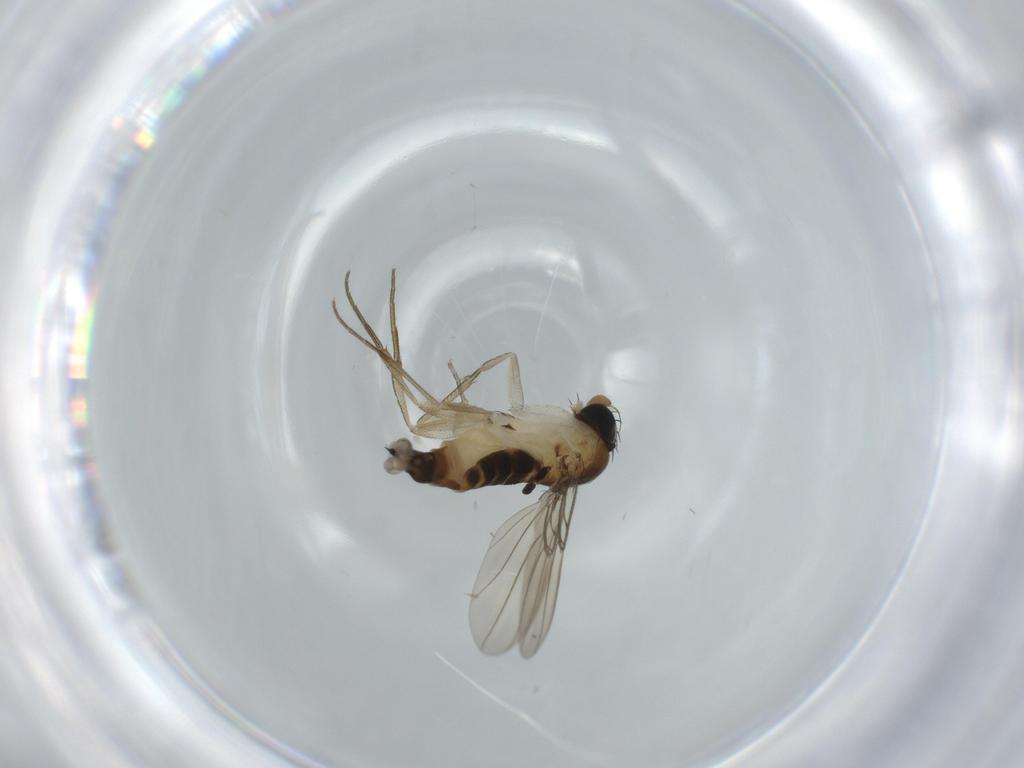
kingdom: Animalia
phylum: Arthropoda
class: Insecta
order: Diptera
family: Phoridae
